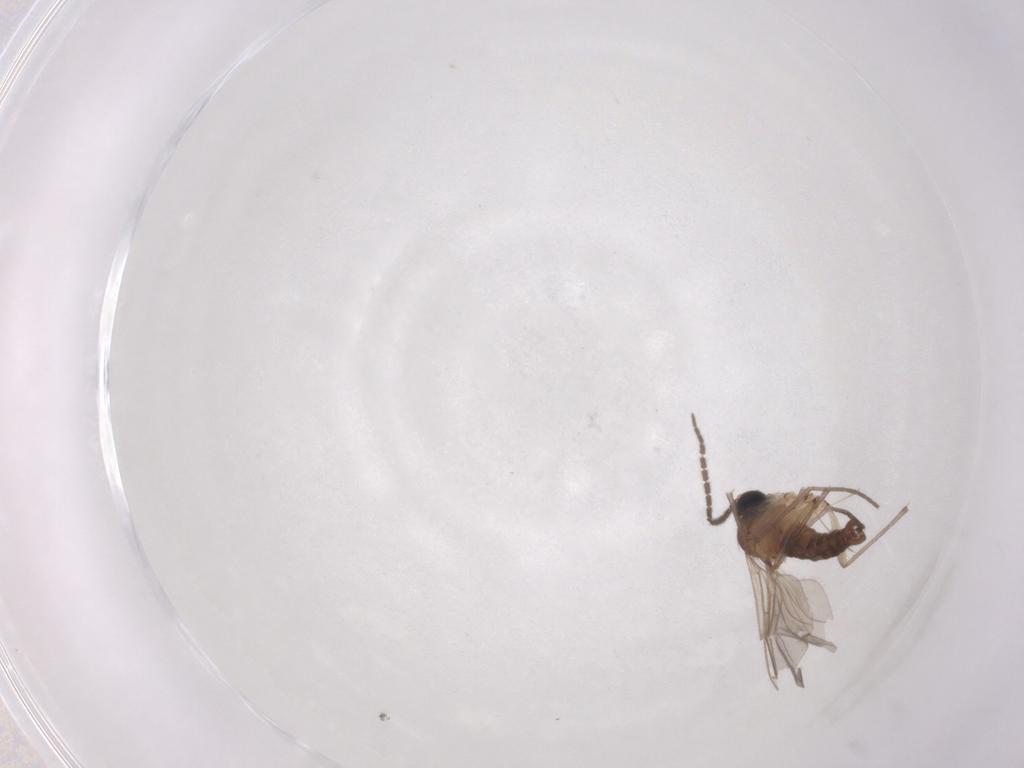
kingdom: Animalia
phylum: Arthropoda
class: Insecta
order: Diptera
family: Sciaridae
